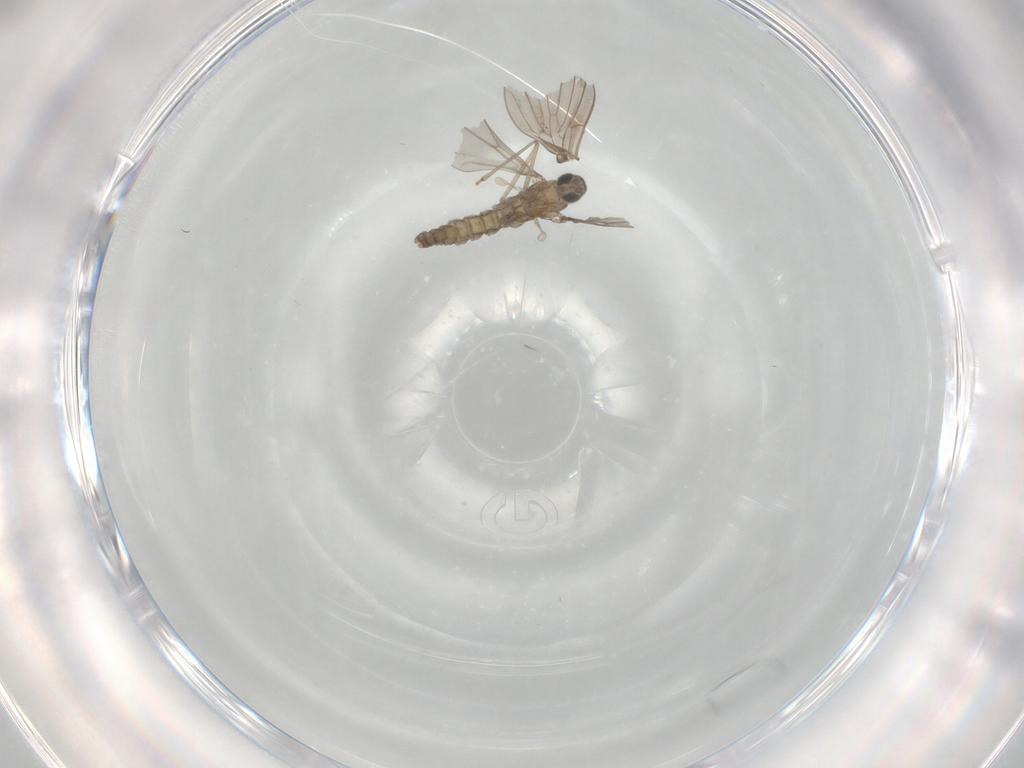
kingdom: Animalia
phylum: Arthropoda
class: Insecta
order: Diptera
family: Psychodidae
